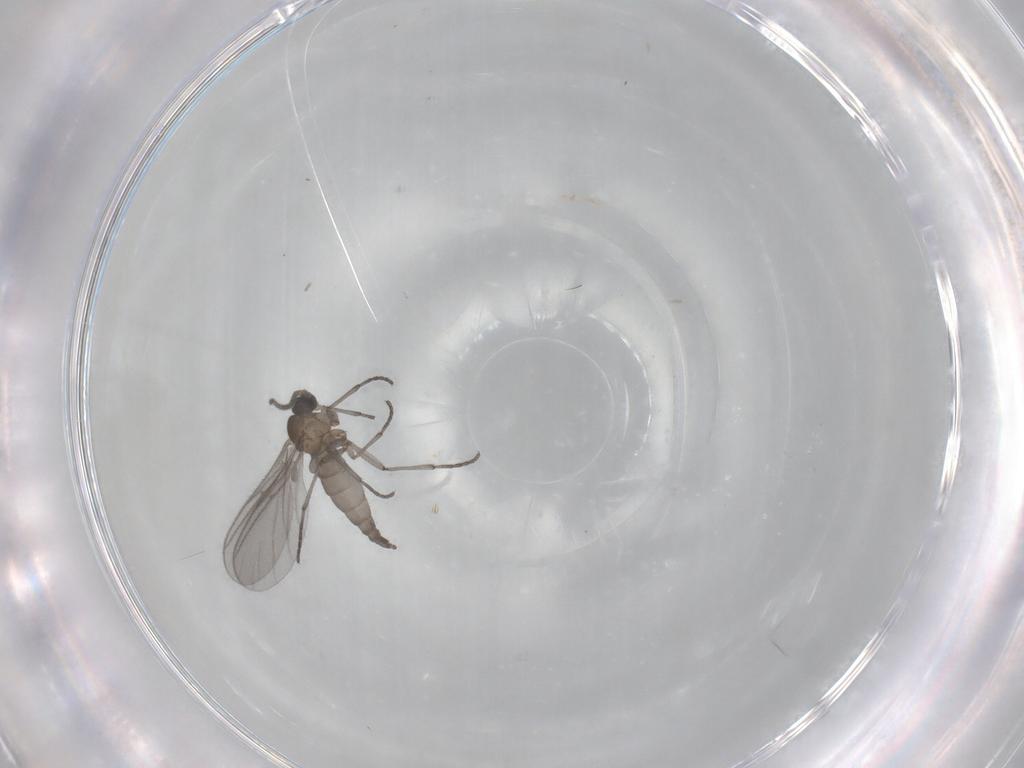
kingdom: Animalia
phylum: Arthropoda
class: Insecta
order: Diptera
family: Sciaridae
